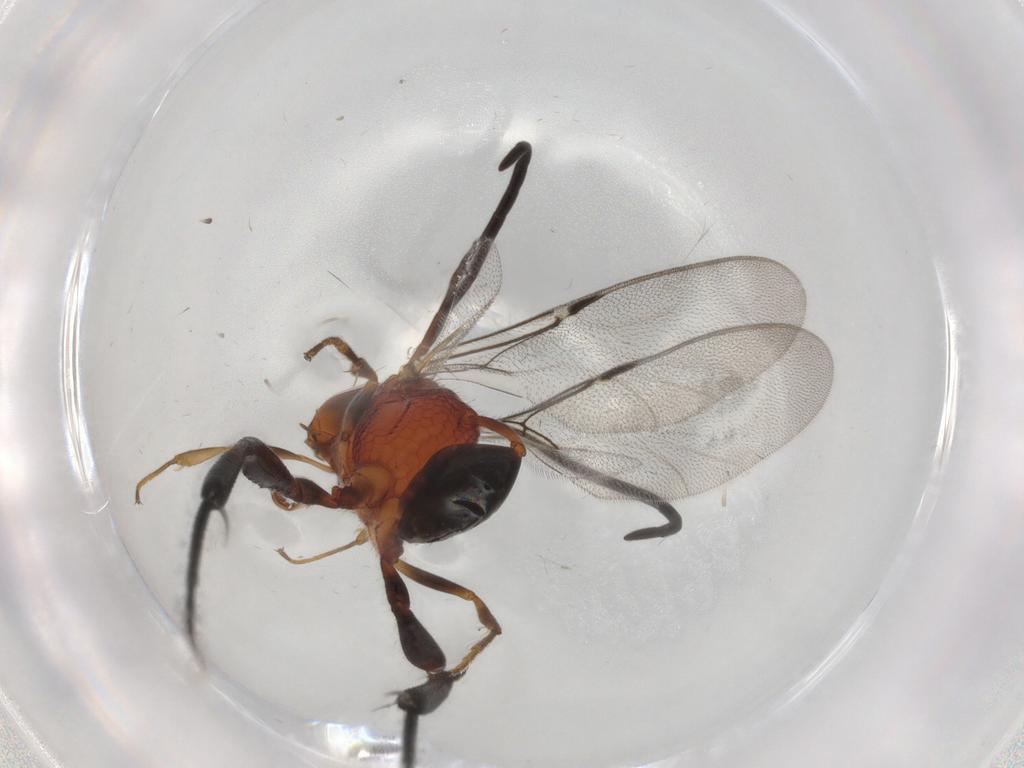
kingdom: Animalia
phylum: Arthropoda
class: Insecta
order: Hymenoptera
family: Evaniidae
